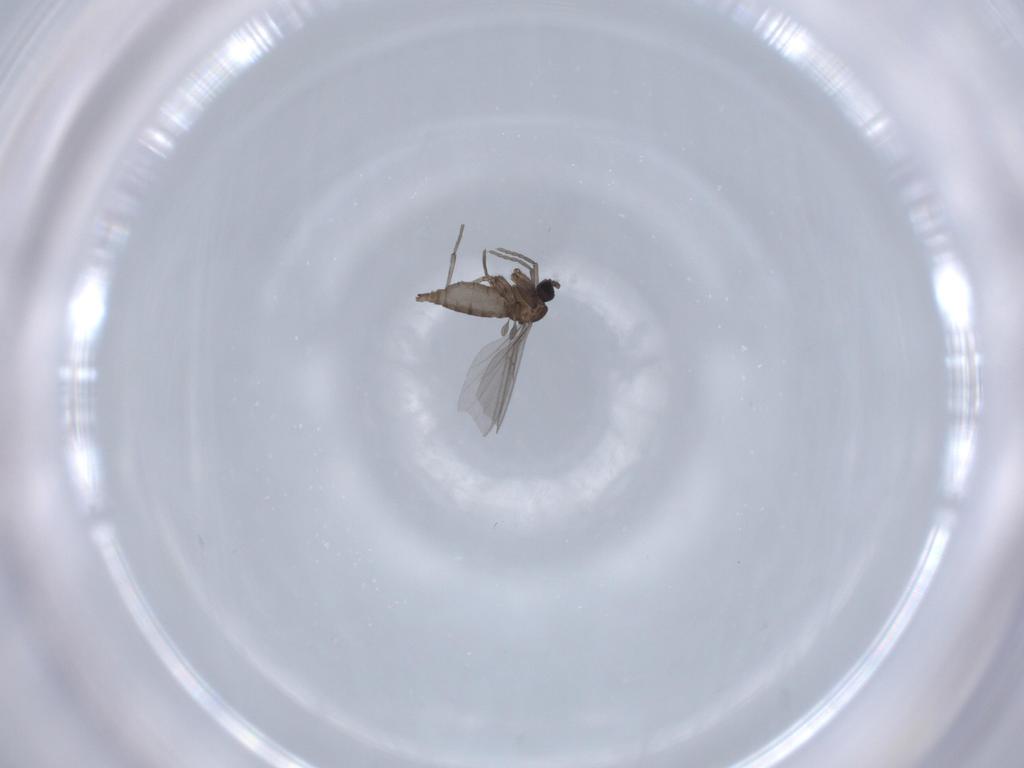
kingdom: Animalia
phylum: Arthropoda
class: Insecta
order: Diptera
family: Sciaridae
